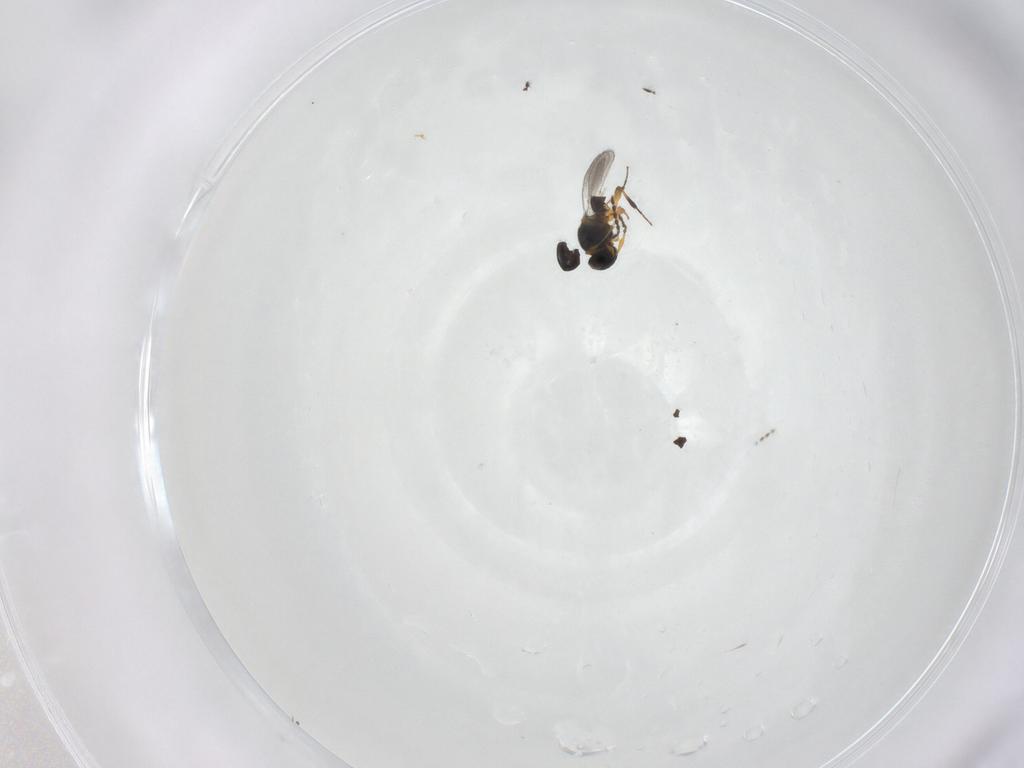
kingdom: Animalia
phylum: Arthropoda
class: Insecta
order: Hymenoptera
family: Platygastridae
